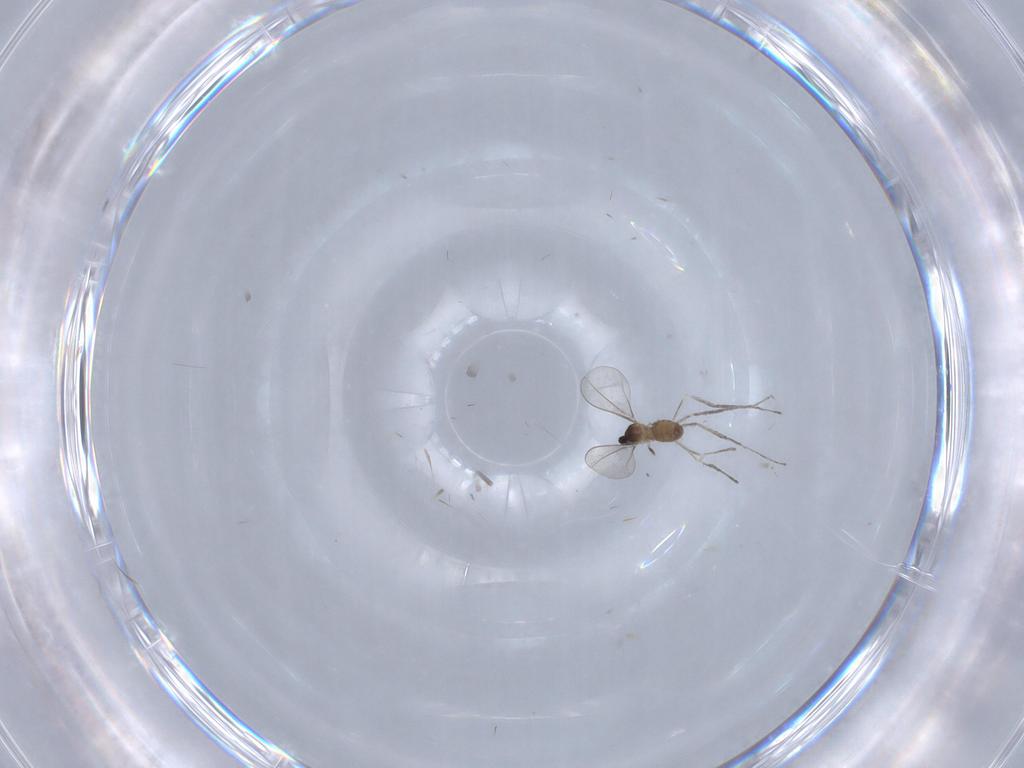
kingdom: Animalia
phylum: Arthropoda
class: Insecta
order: Diptera
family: Cecidomyiidae
